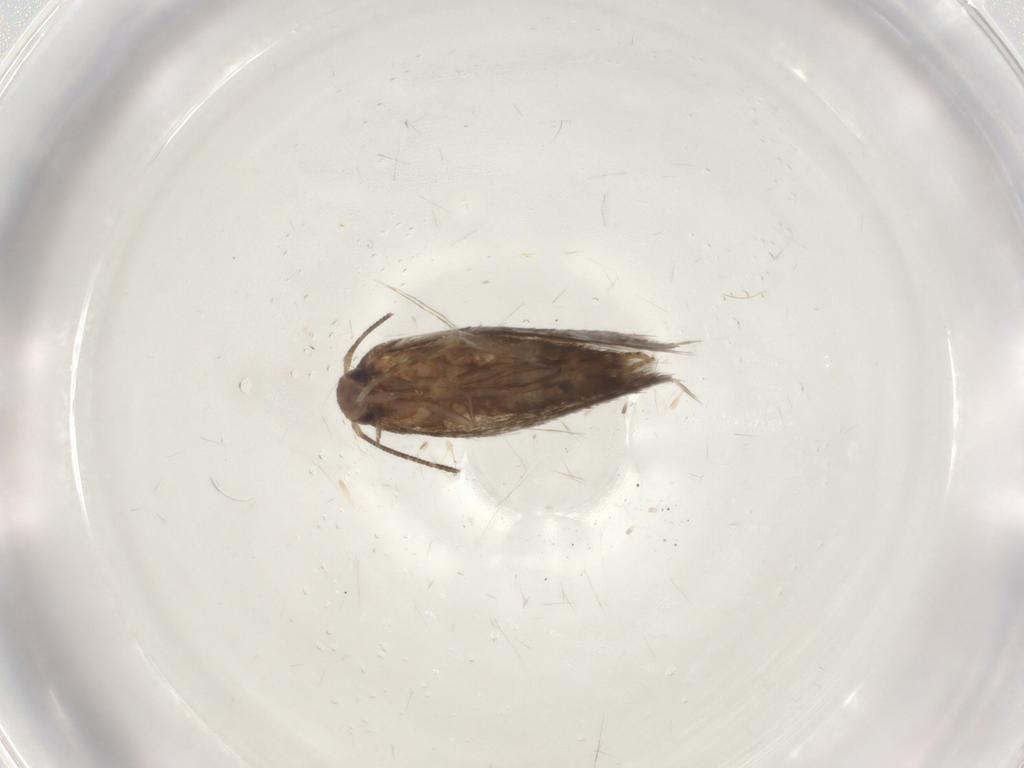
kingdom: Animalia
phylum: Arthropoda
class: Insecta
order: Lepidoptera
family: Elachistidae
